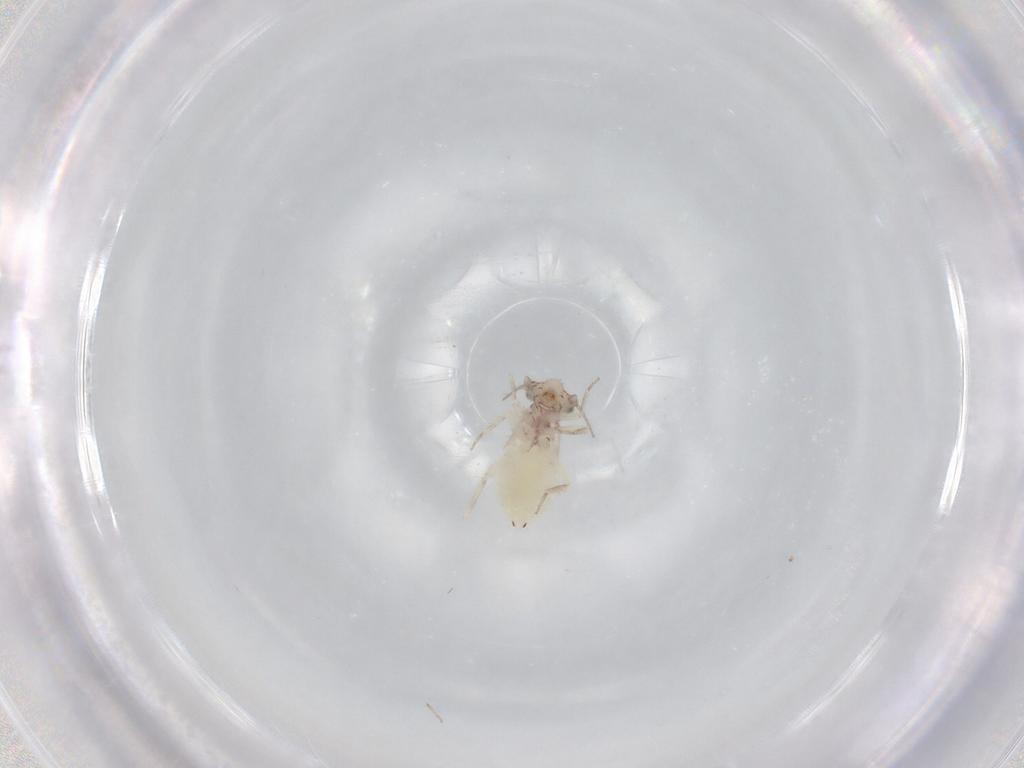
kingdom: Animalia
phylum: Arthropoda
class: Insecta
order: Psocodea
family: Lepidopsocidae
